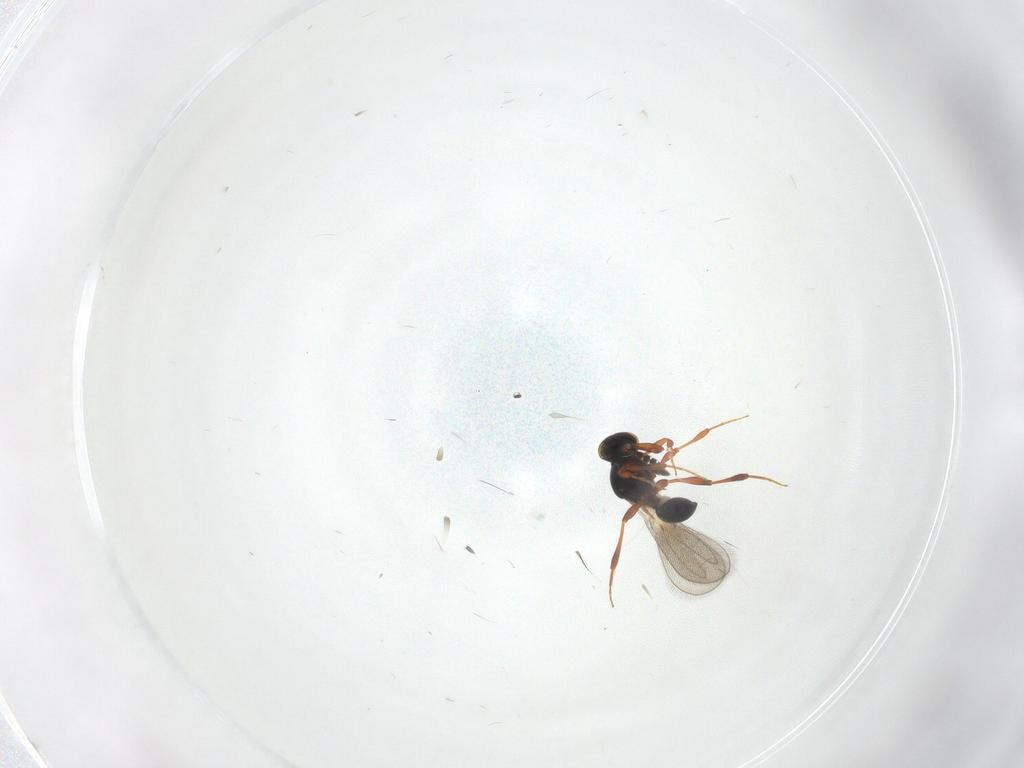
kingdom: Animalia
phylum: Arthropoda
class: Insecta
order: Hymenoptera
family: Platygastridae
